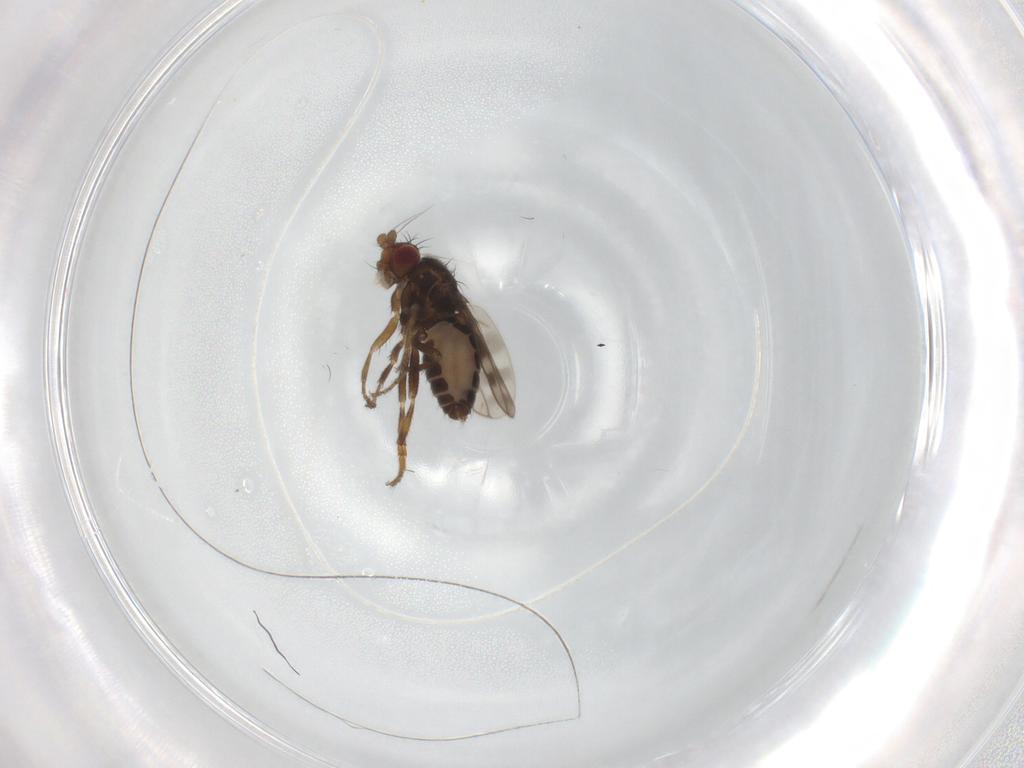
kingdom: Animalia
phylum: Arthropoda
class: Insecta
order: Diptera
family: Sphaeroceridae
